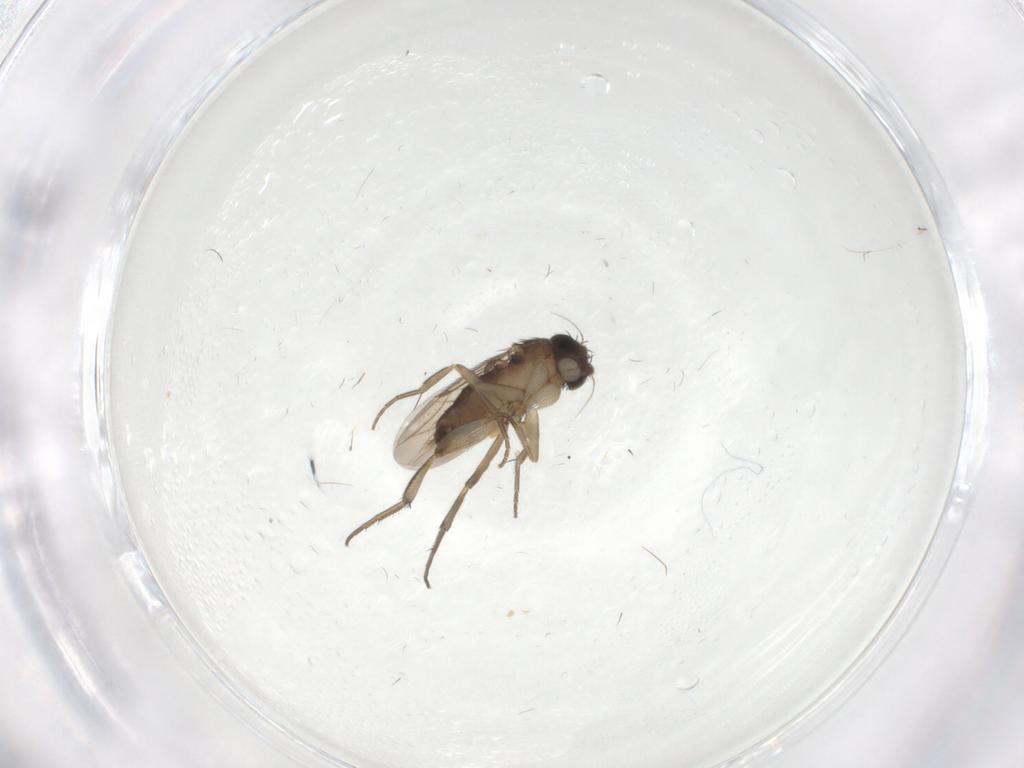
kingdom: Animalia
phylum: Arthropoda
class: Insecta
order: Diptera
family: Phoridae
